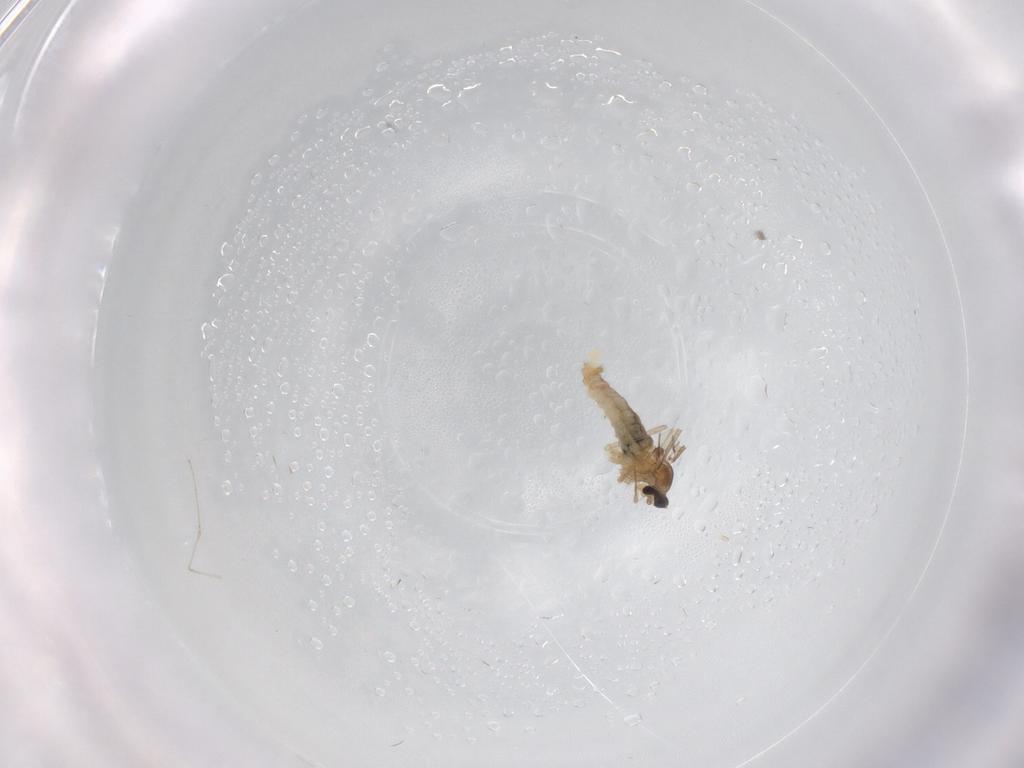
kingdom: Animalia
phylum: Arthropoda
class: Insecta
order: Diptera
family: Cecidomyiidae
